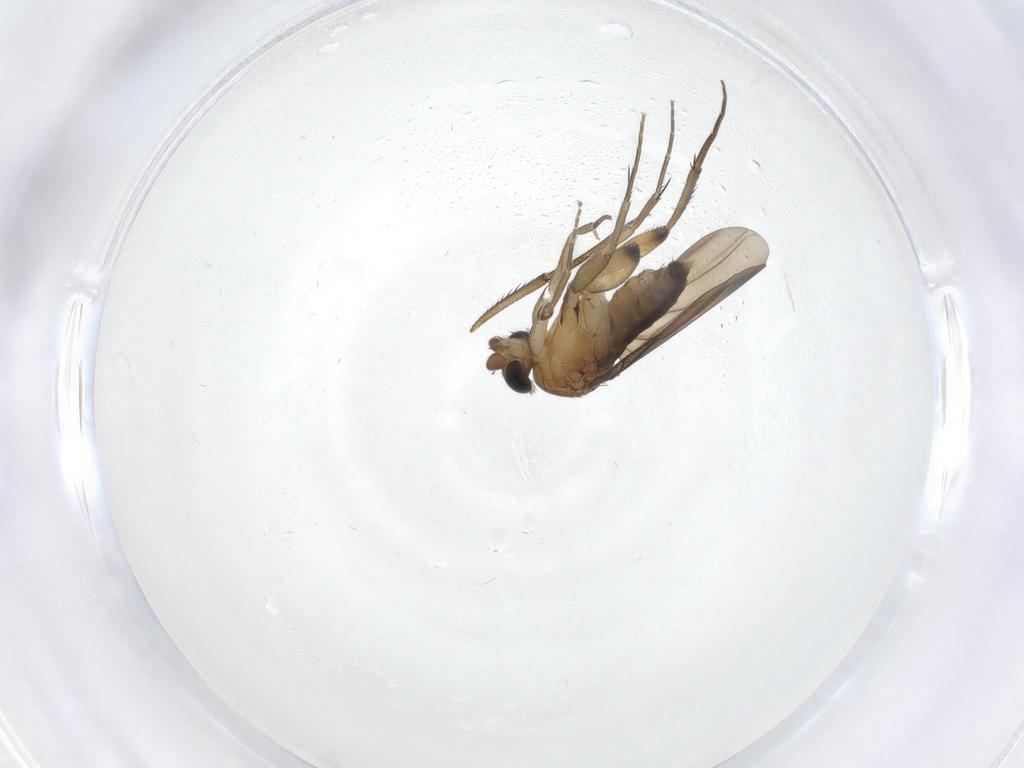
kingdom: Animalia
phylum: Arthropoda
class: Insecta
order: Diptera
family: Phoridae
